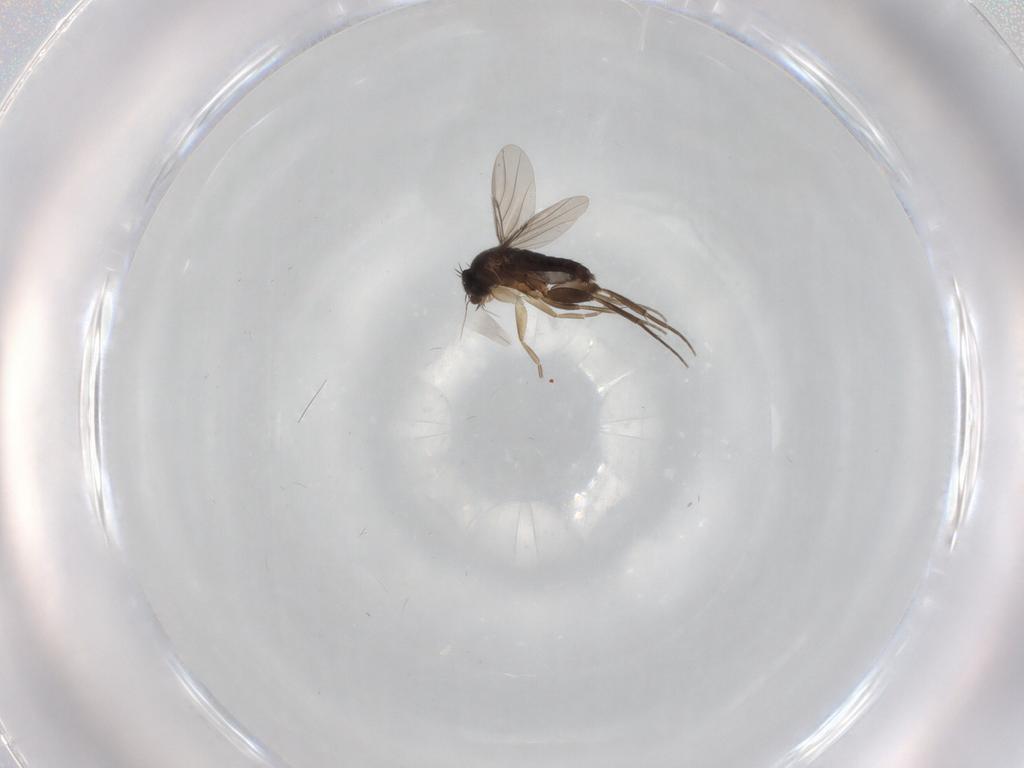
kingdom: Animalia
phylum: Arthropoda
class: Insecta
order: Diptera
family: Phoridae
